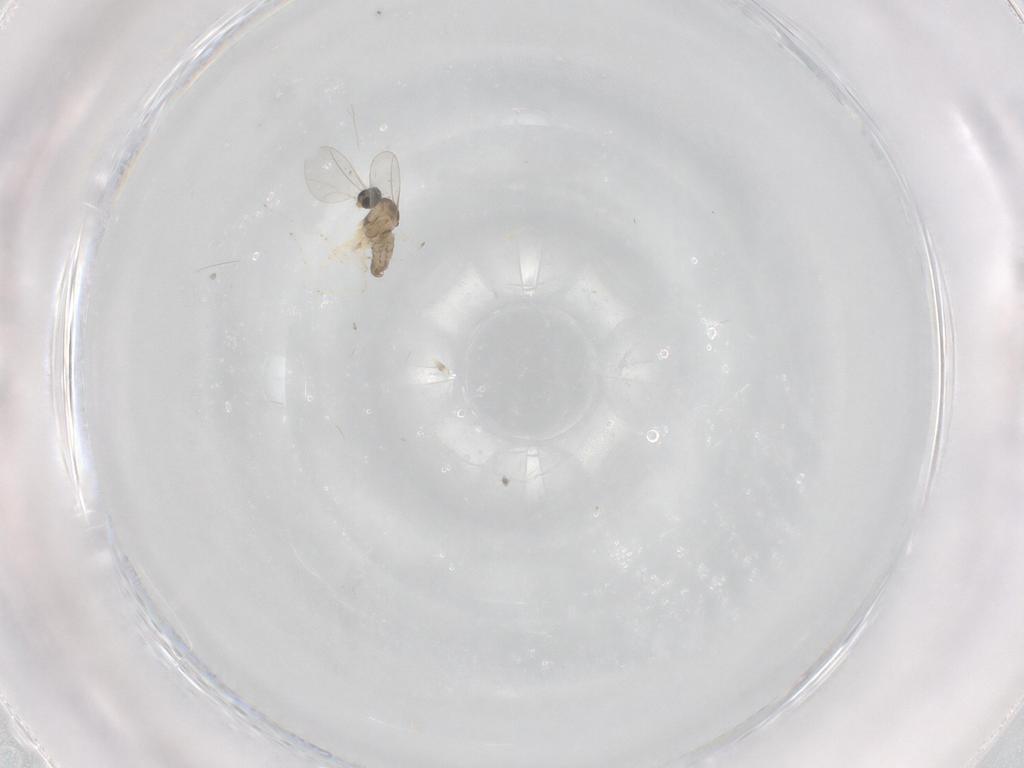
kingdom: Animalia
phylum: Arthropoda
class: Insecta
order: Diptera
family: Cecidomyiidae
